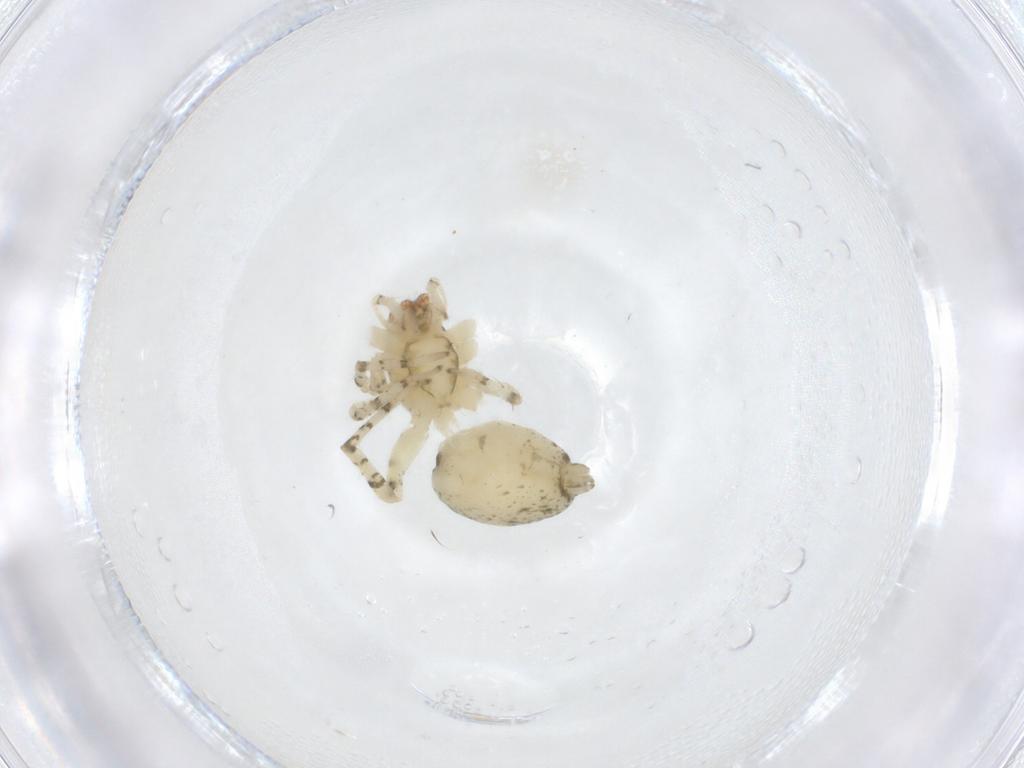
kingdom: Animalia
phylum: Arthropoda
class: Arachnida
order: Araneae
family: Anyphaenidae
